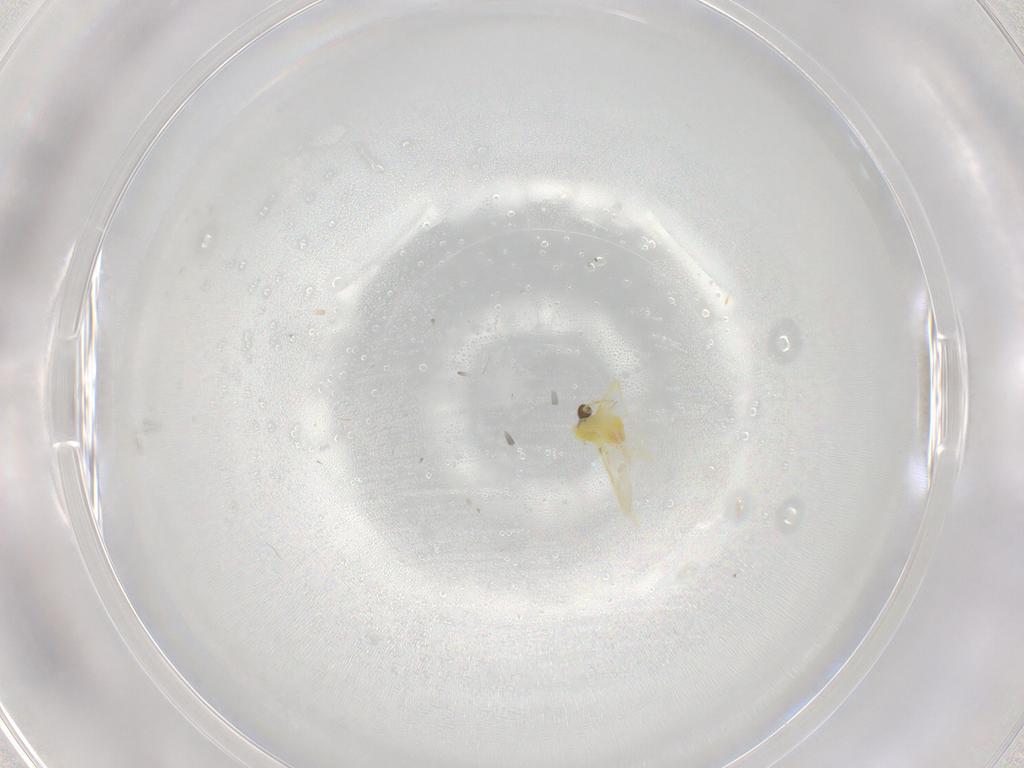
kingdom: Animalia
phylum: Arthropoda
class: Insecta
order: Hemiptera
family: Aleyrodidae
